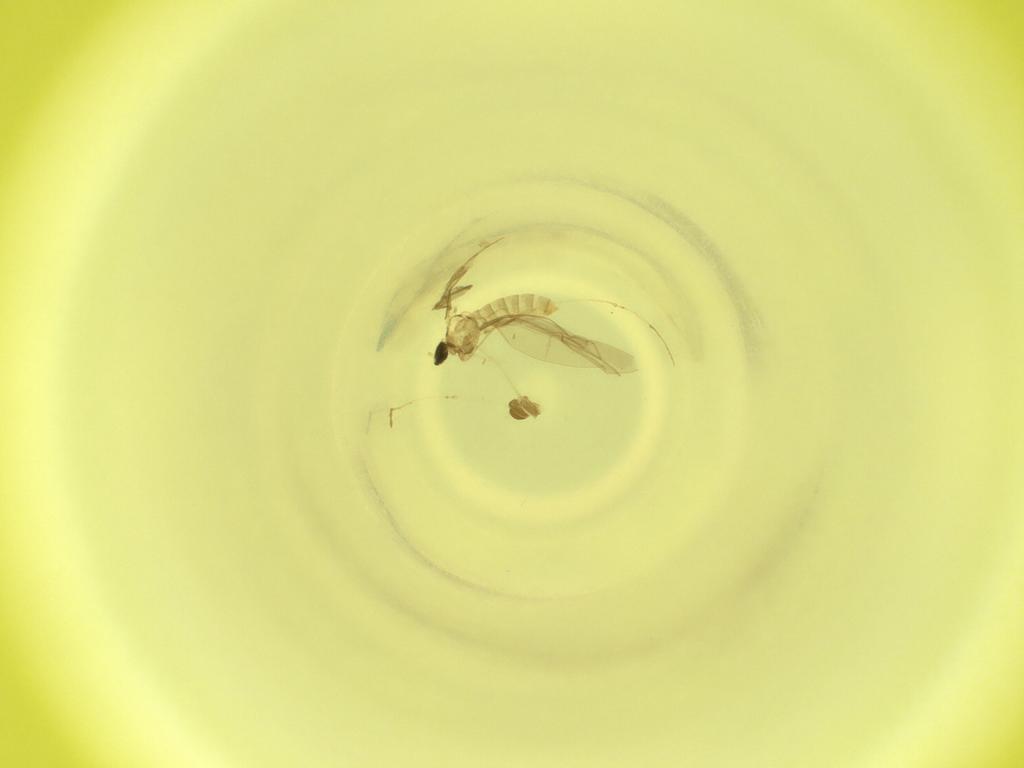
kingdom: Animalia
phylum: Arthropoda
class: Insecta
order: Diptera
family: Cecidomyiidae
